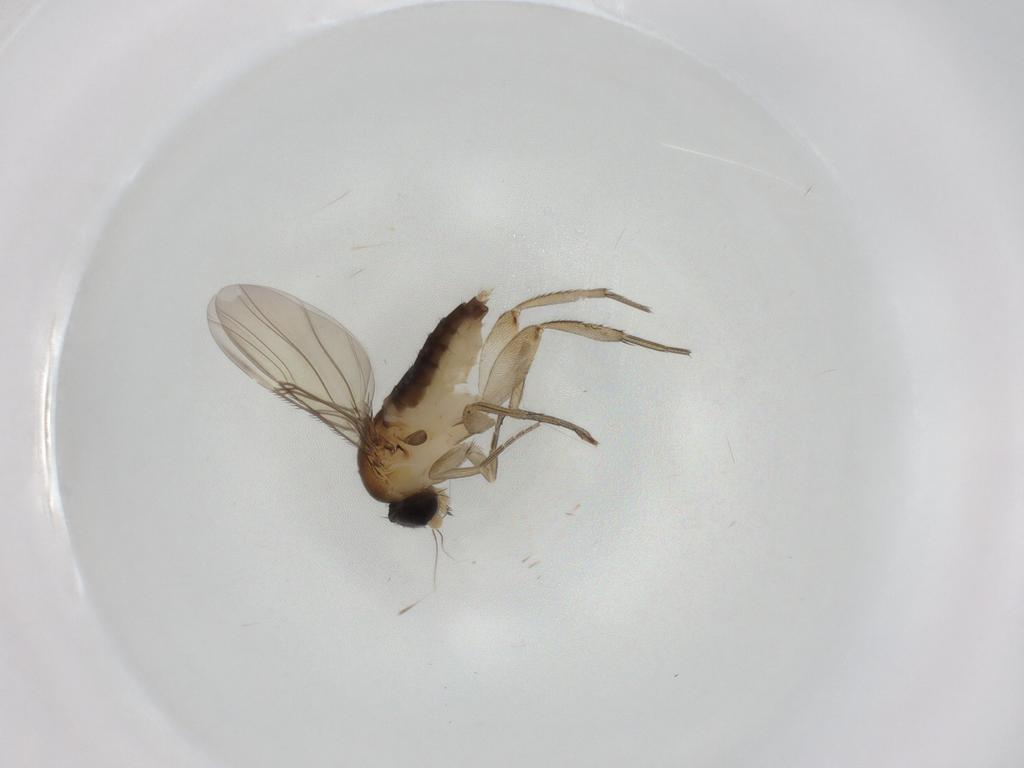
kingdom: Animalia
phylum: Arthropoda
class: Insecta
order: Diptera
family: Phoridae
